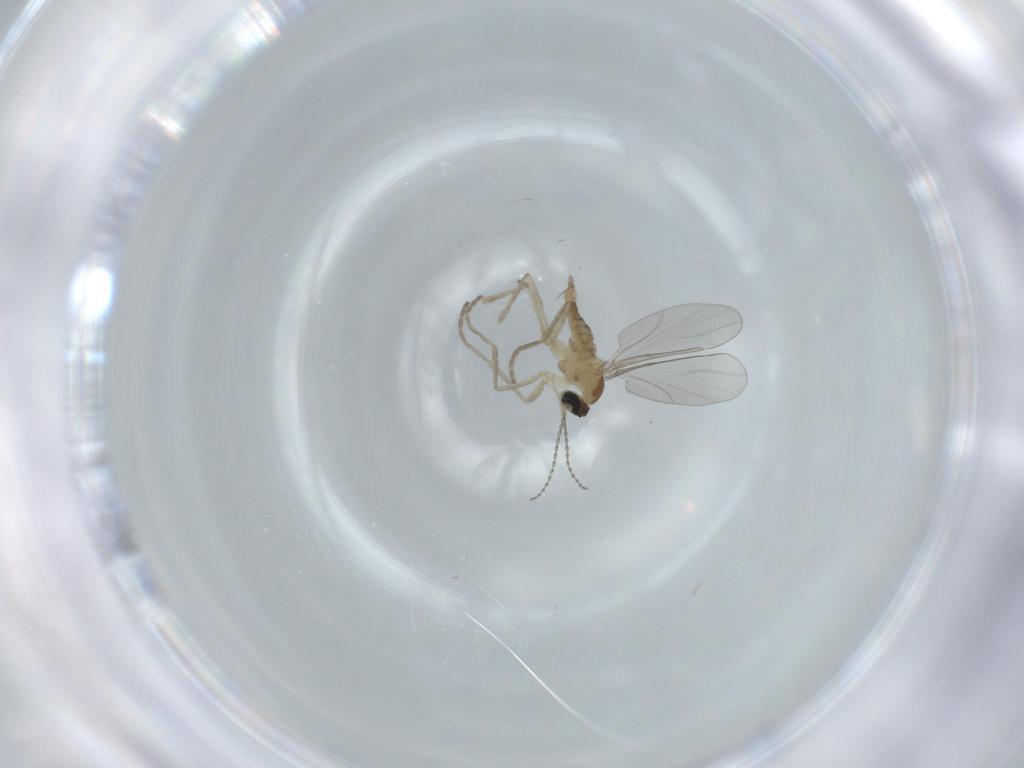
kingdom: Animalia
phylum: Arthropoda
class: Insecta
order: Diptera
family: Cecidomyiidae
